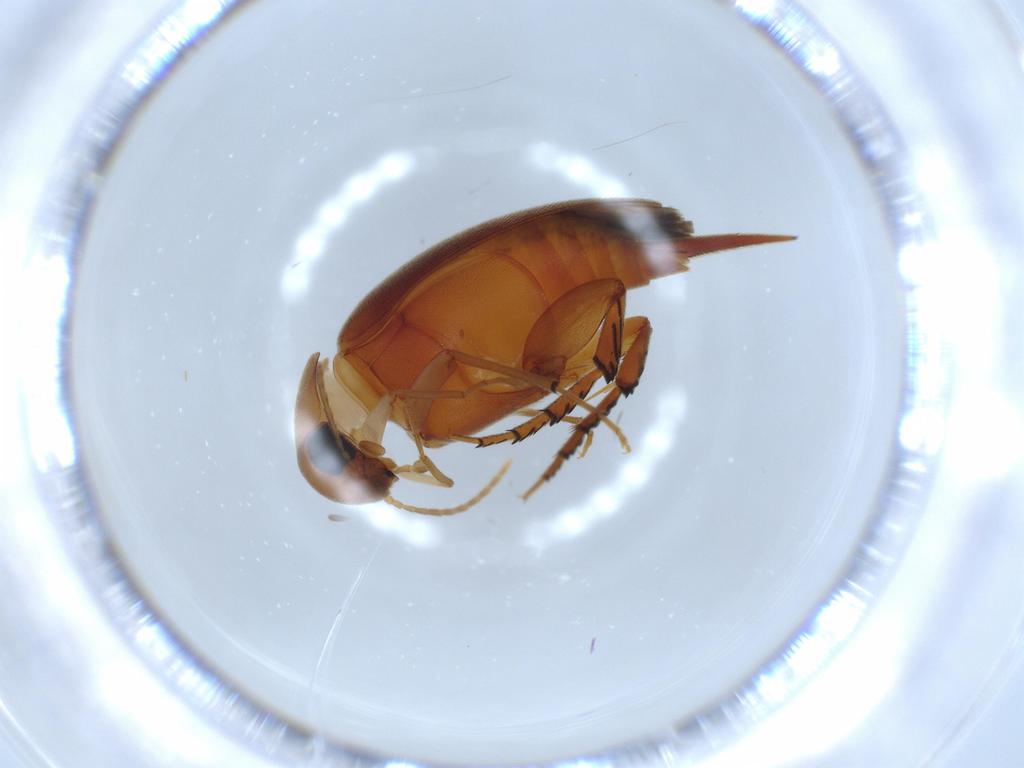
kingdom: Animalia
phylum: Arthropoda
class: Insecta
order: Coleoptera
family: Mordellidae
